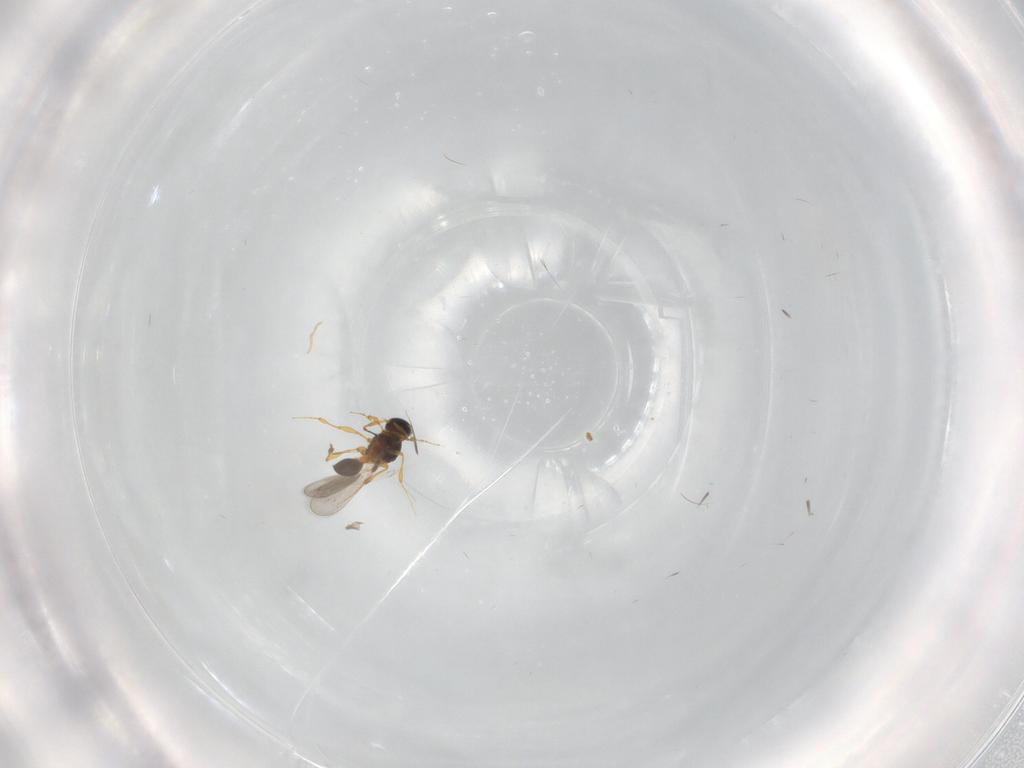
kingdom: Animalia
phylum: Arthropoda
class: Insecta
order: Hymenoptera
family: Platygastridae
